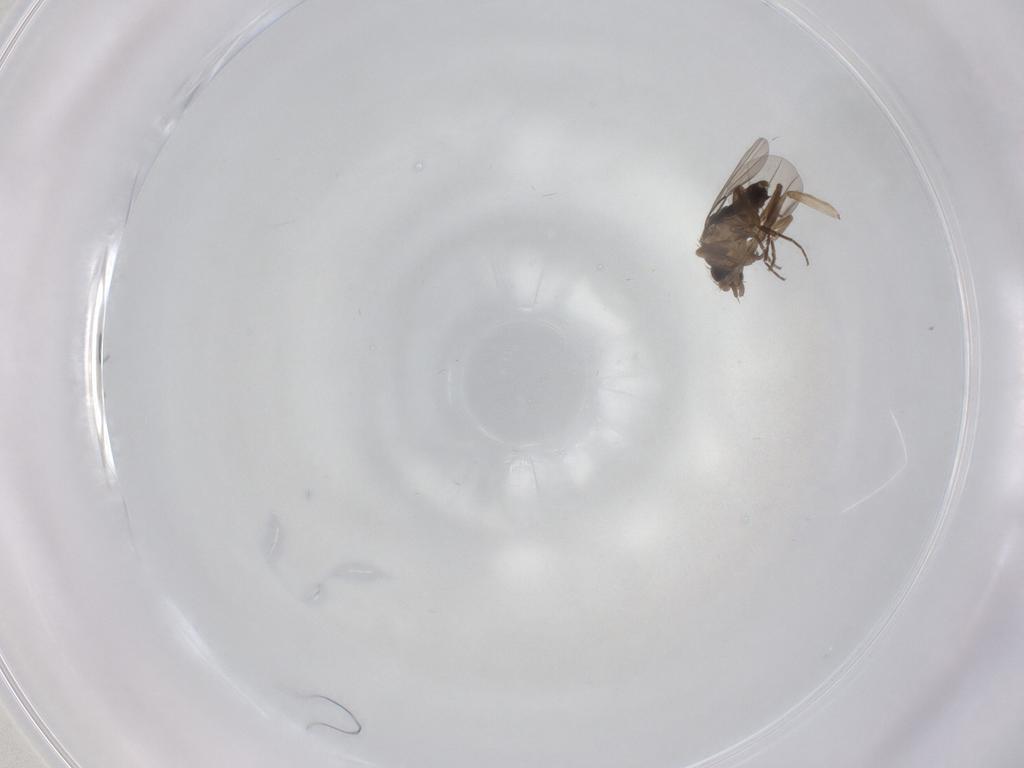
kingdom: Animalia
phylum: Arthropoda
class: Insecta
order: Diptera
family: Psychodidae
